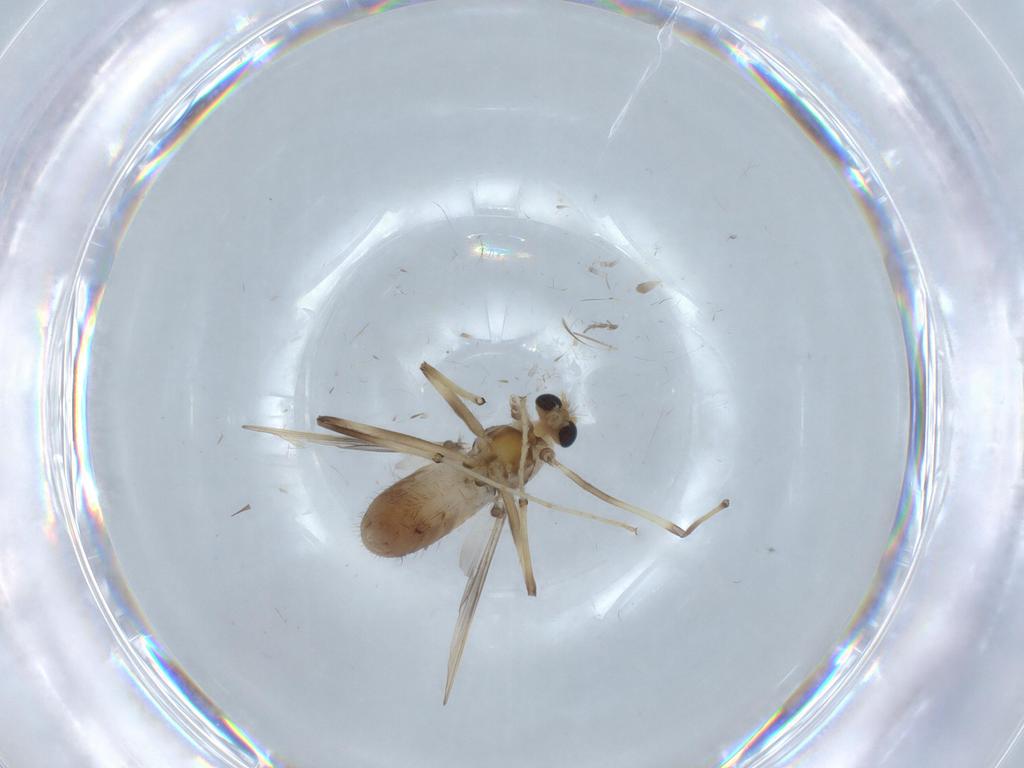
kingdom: Animalia
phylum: Arthropoda
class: Insecta
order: Diptera
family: Chironomidae
